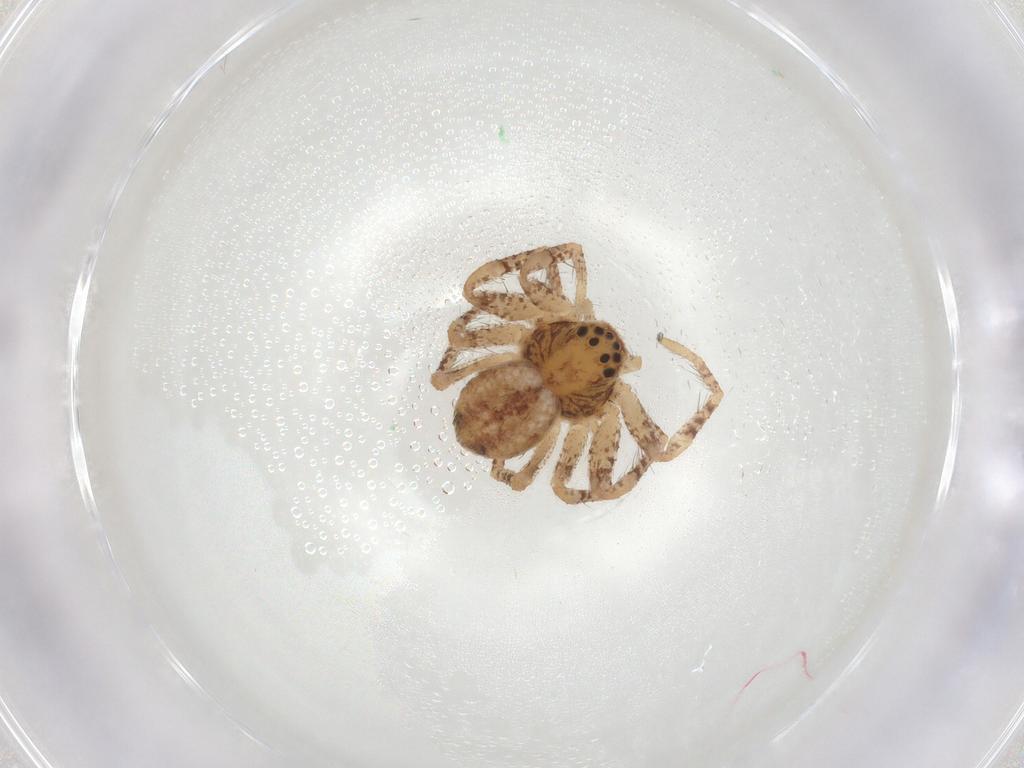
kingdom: Animalia
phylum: Arthropoda
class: Arachnida
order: Araneae
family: Philodromidae
